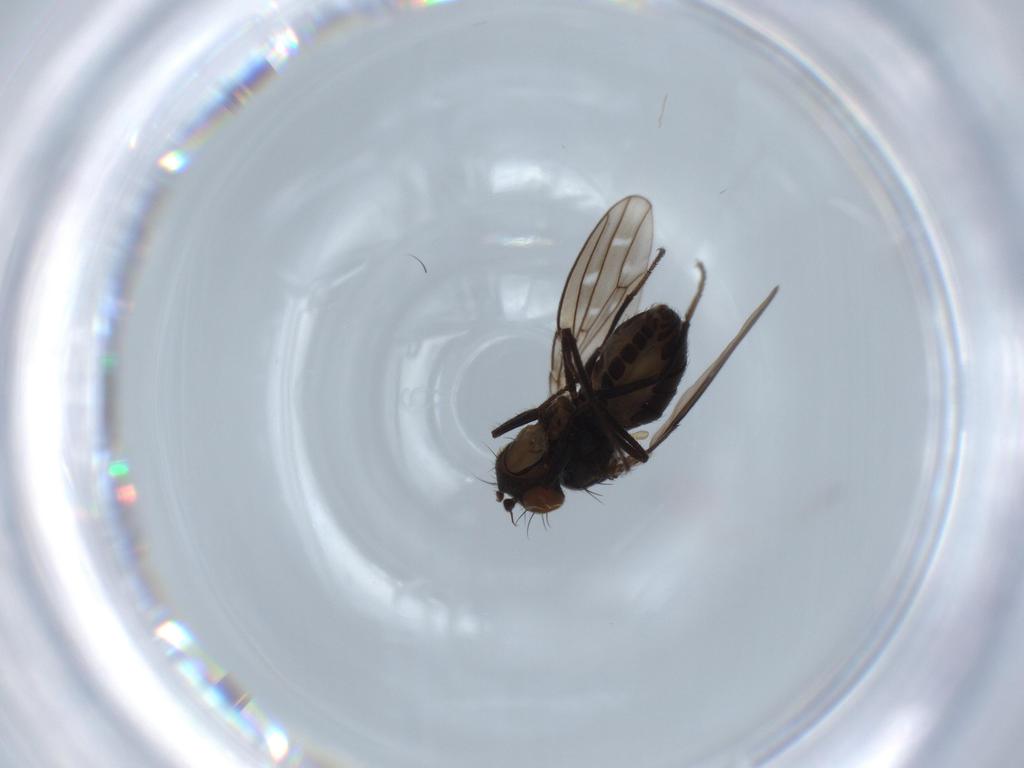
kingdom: Animalia
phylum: Arthropoda
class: Insecta
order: Diptera
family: Ephydridae
